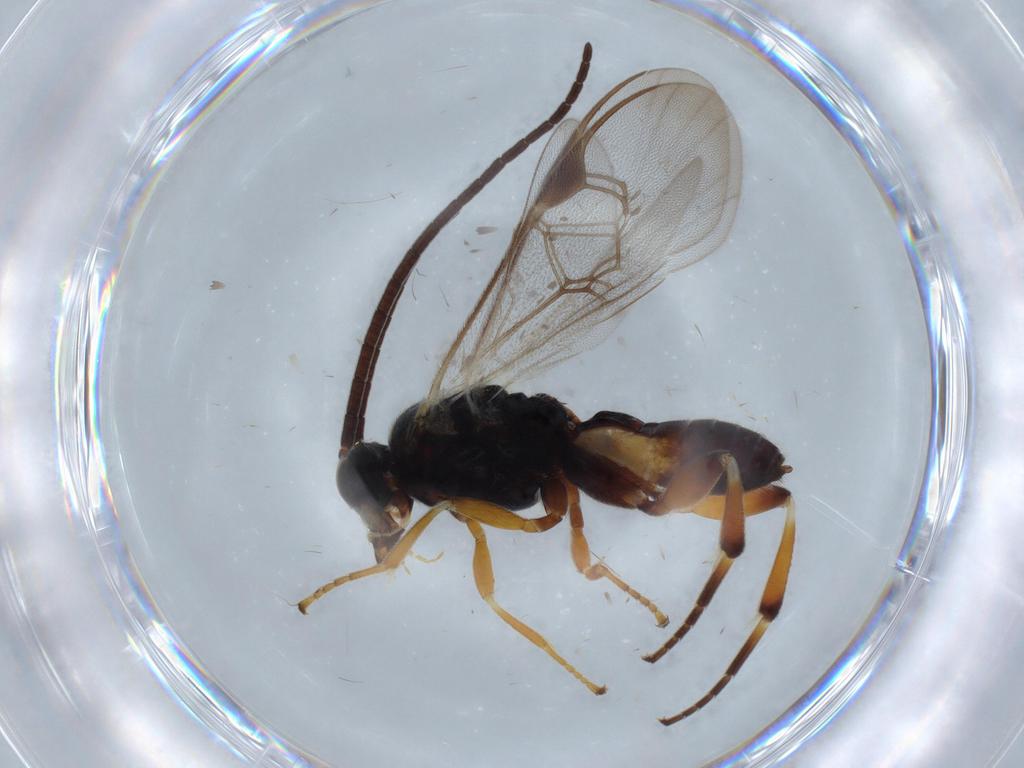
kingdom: Animalia
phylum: Arthropoda
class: Insecta
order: Hymenoptera
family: Braconidae
